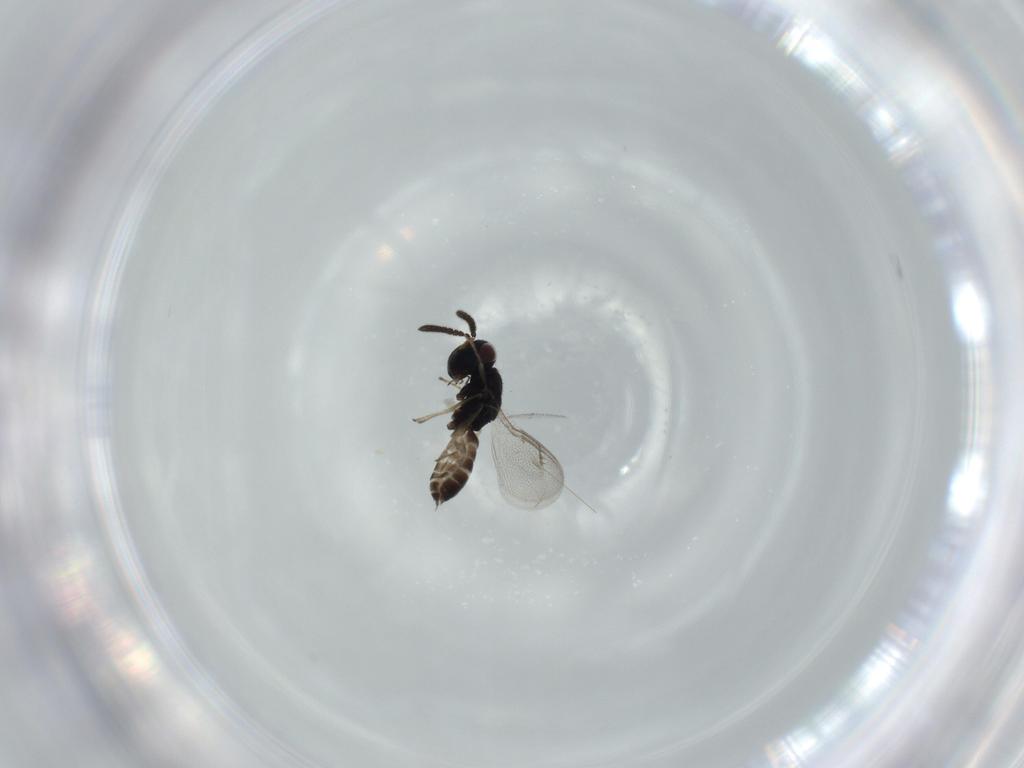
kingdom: Animalia
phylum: Arthropoda
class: Insecta
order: Hymenoptera
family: Pteromalidae
